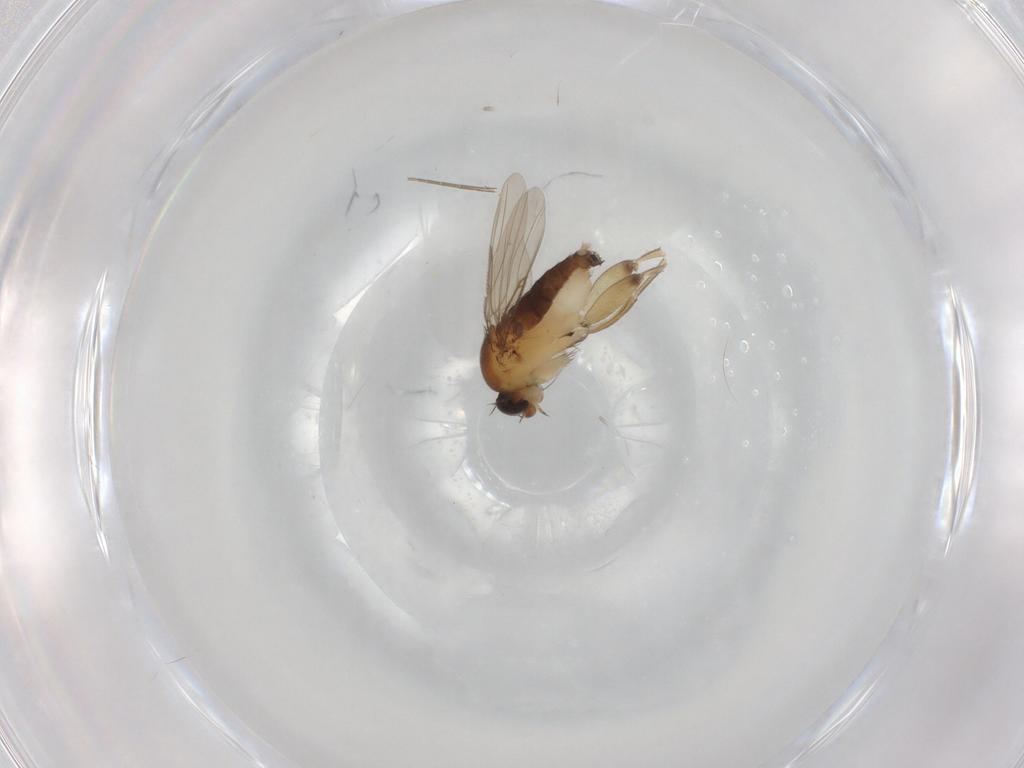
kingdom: Animalia
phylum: Arthropoda
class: Insecta
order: Diptera
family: Phoridae
